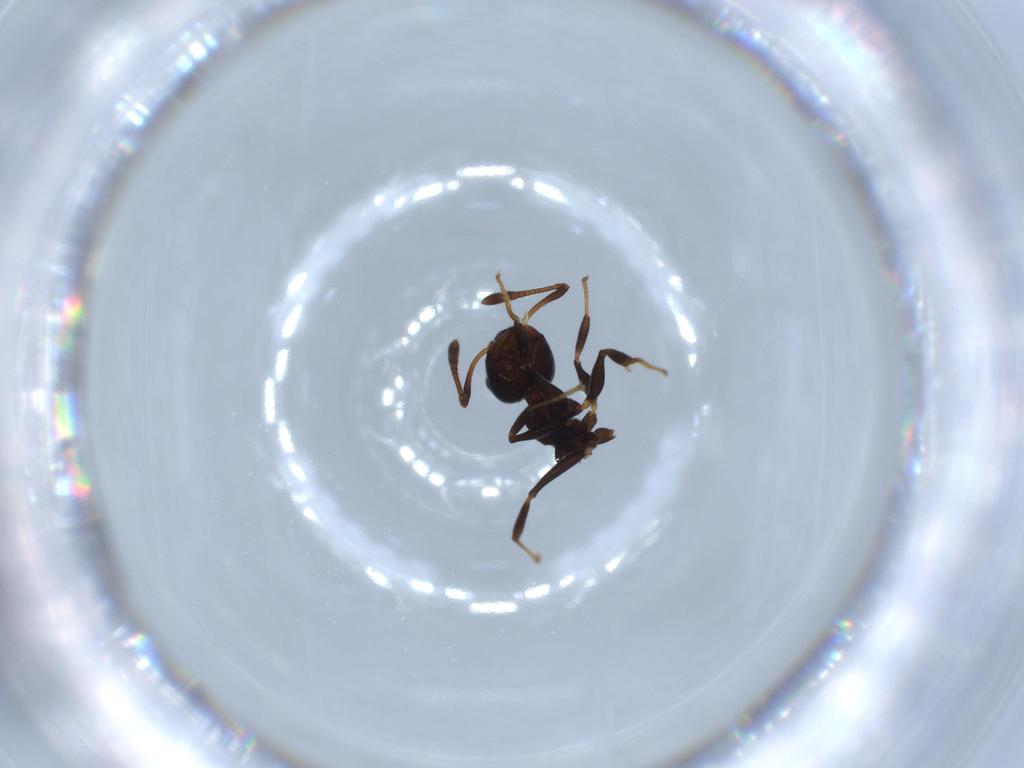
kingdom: Animalia
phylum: Arthropoda
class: Insecta
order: Hymenoptera
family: Formicidae
